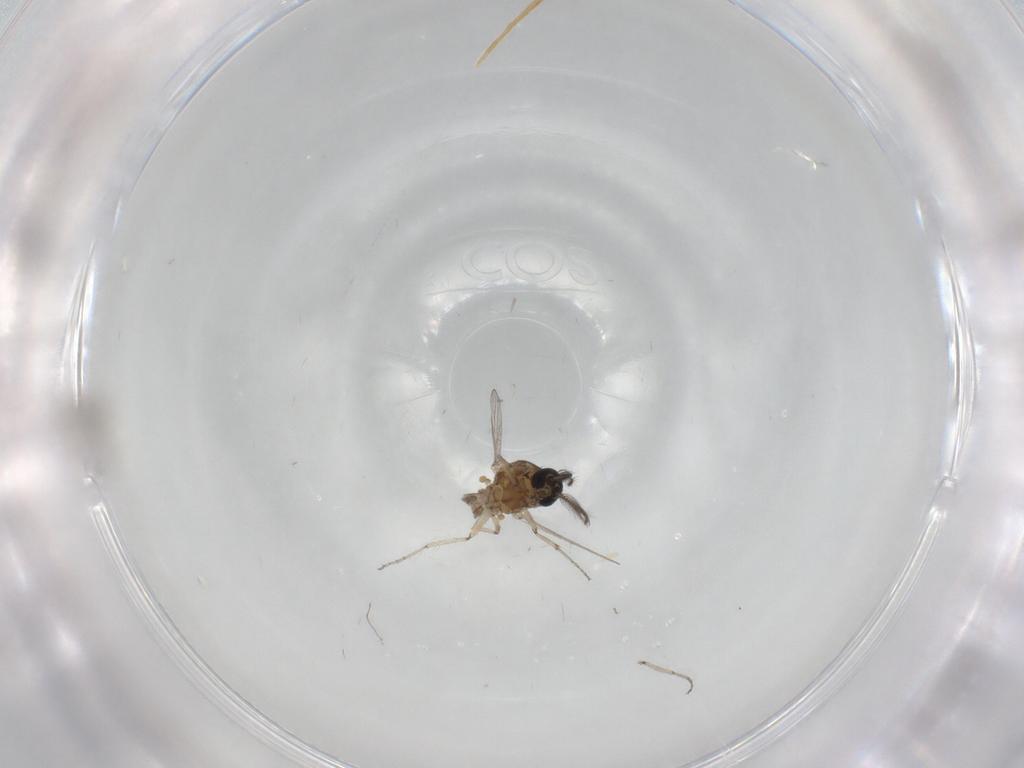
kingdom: Animalia
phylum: Arthropoda
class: Insecta
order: Diptera
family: Ceratopogonidae
